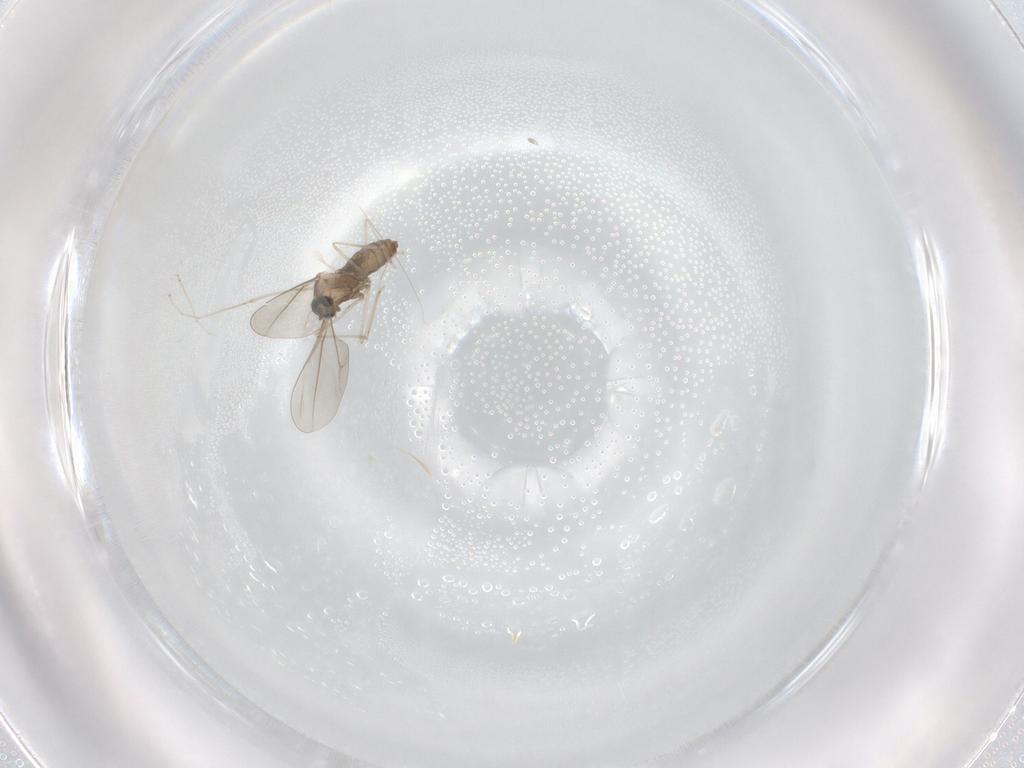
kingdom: Animalia
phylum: Arthropoda
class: Insecta
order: Diptera
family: Cecidomyiidae
